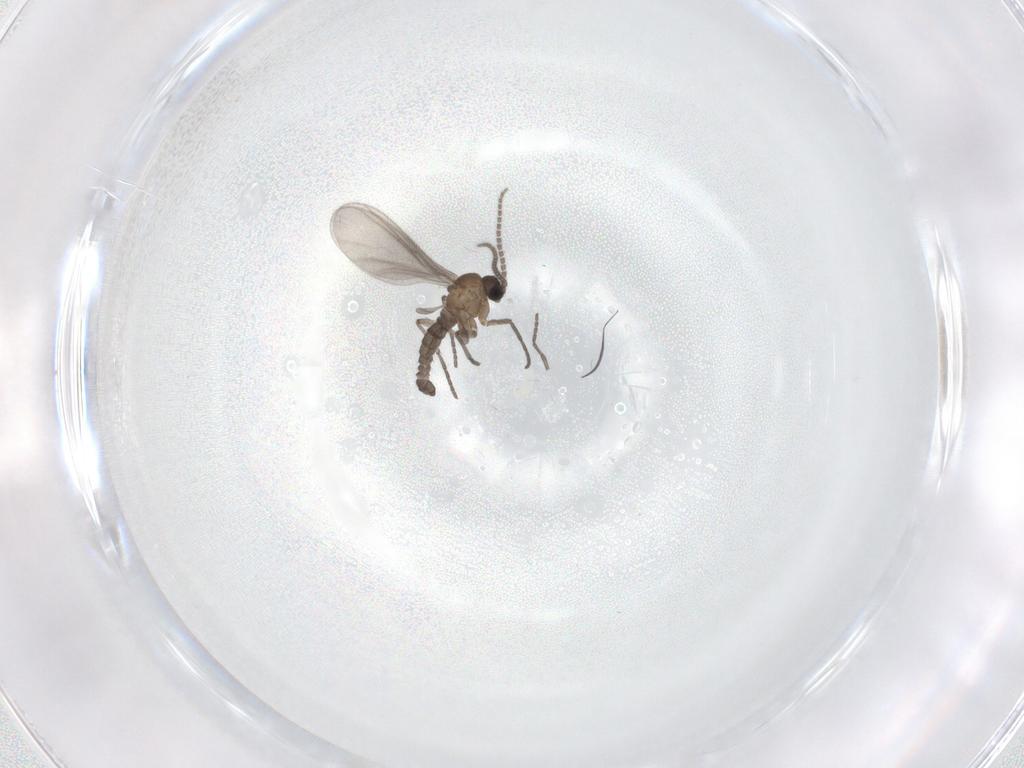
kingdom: Animalia
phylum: Arthropoda
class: Insecta
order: Diptera
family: Sciaridae
